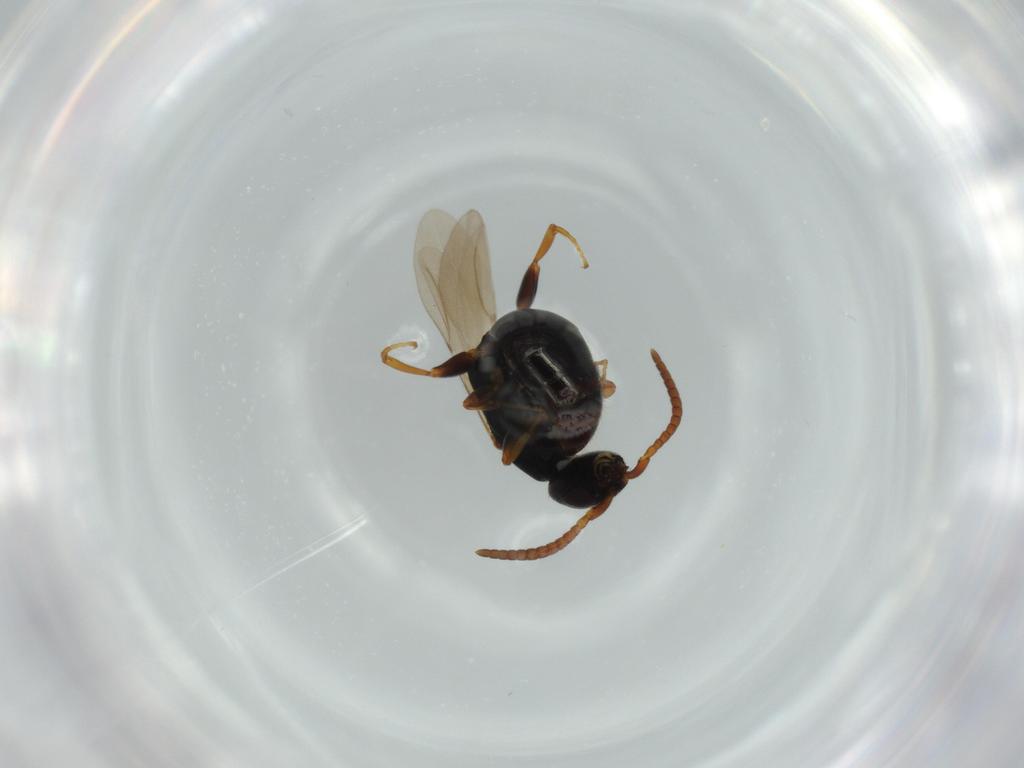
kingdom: Animalia
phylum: Arthropoda
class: Insecta
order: Hymenoptera
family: Bethylidae
